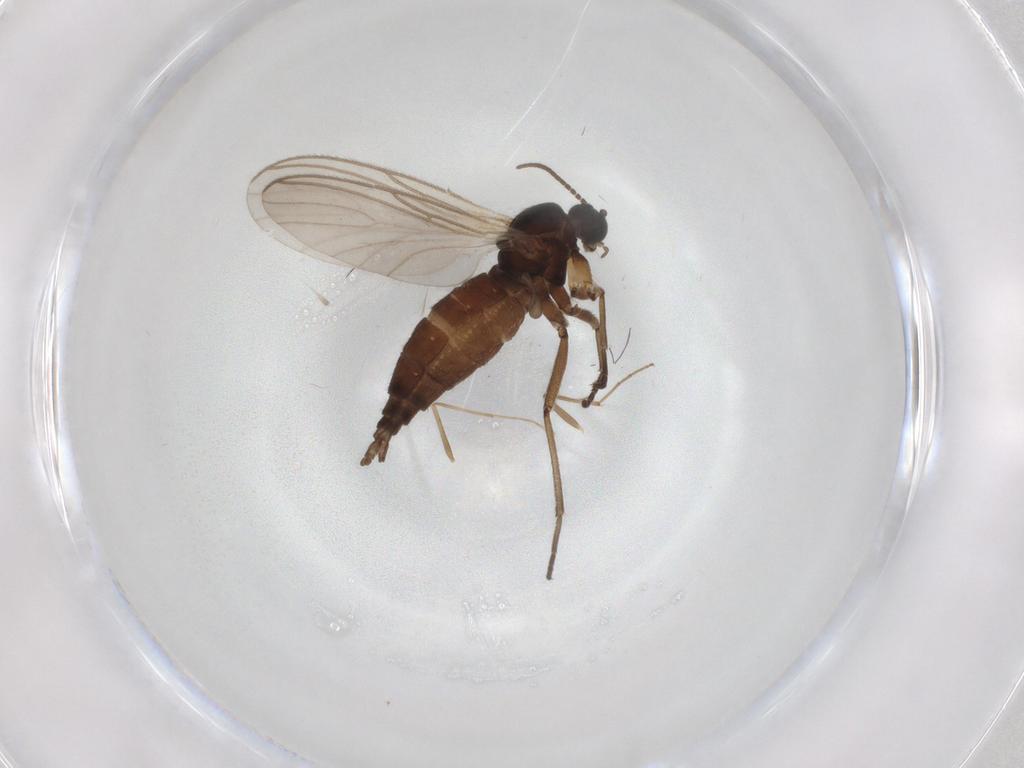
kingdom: Animalia
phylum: Arthropoda
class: Insecta
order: Diptera
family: Sciaridae
